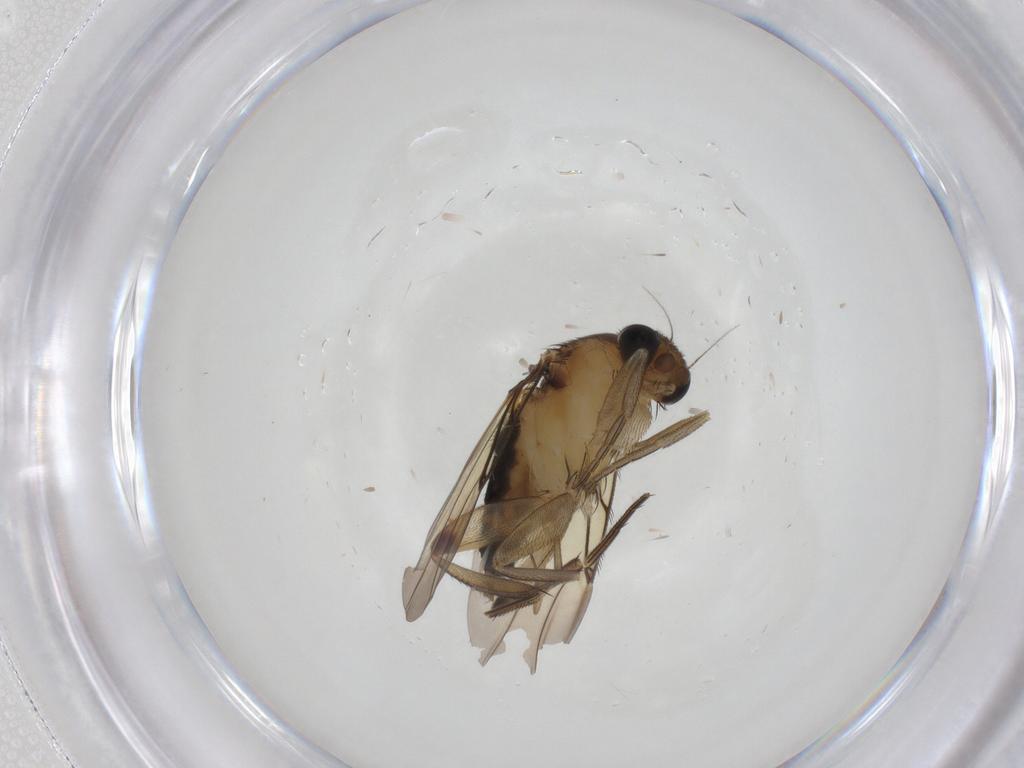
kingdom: Animalia
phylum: Arthropoda
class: Insecta
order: Diptera
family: Phoridae
